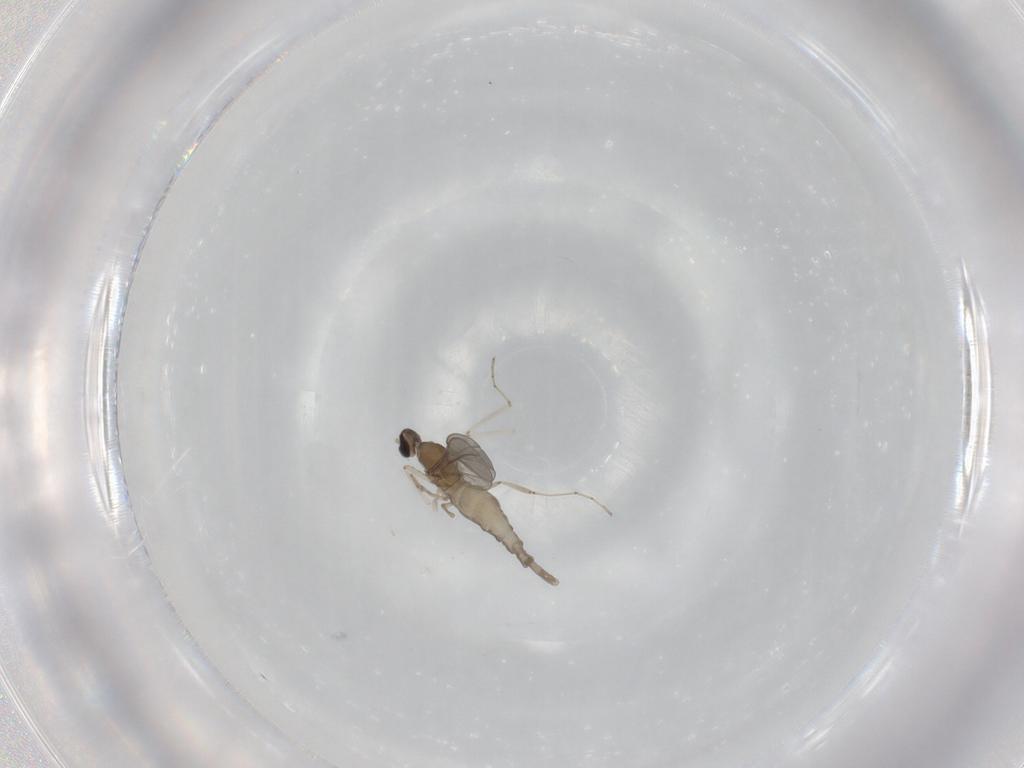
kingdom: Animalia
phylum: Arthropoda
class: Insecta
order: Diptera
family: Cecidomyiidae
